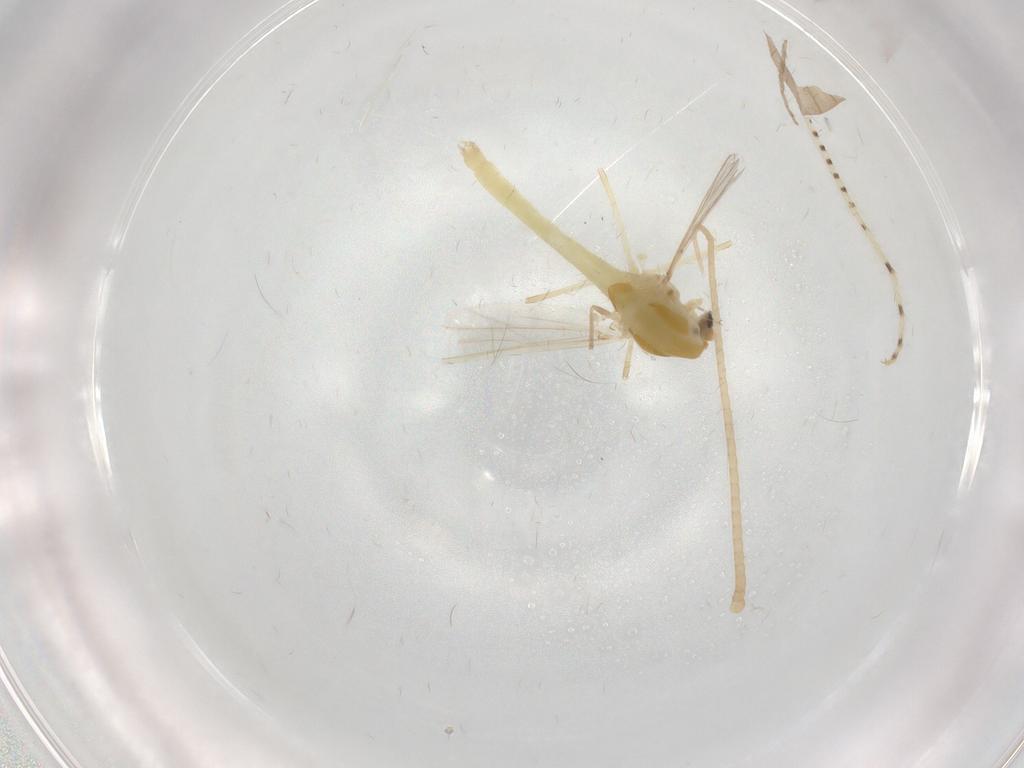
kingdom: Animalia
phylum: Arthropoda
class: Insecta
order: Diptera
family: Chironomidae
